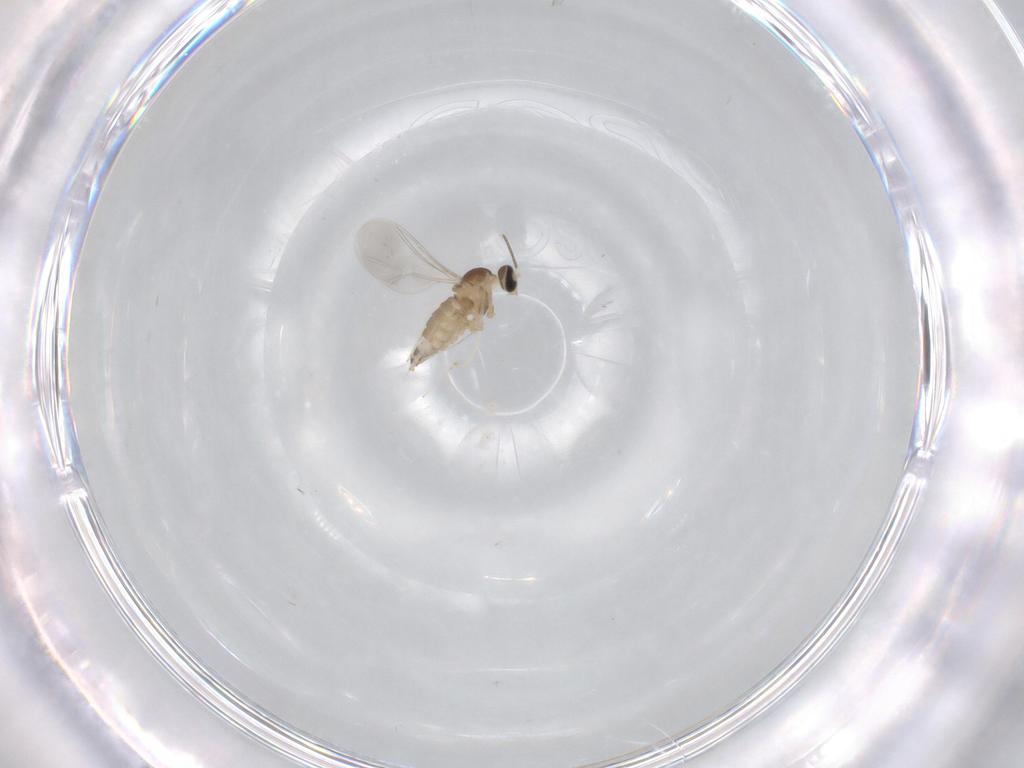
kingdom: Animalia
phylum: Arthropoda
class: Insecta
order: Diptera
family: Cecidomyiidae
